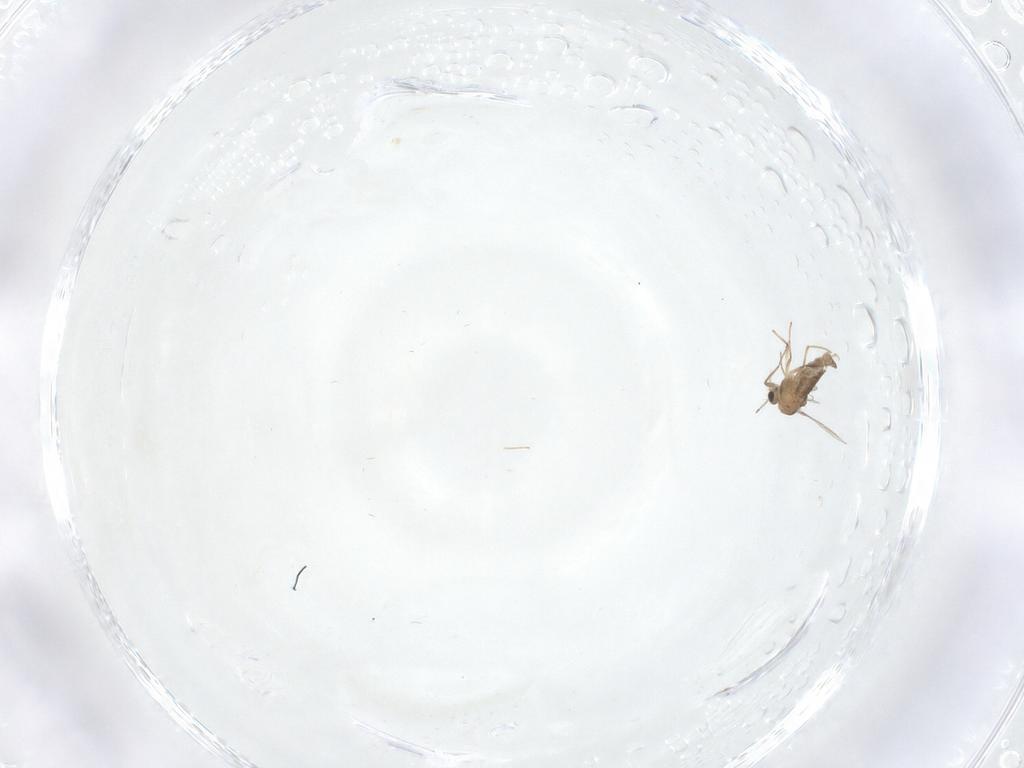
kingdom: Animalia
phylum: Arthropoda
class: Insecta
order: Diptera
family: Chironomidae
